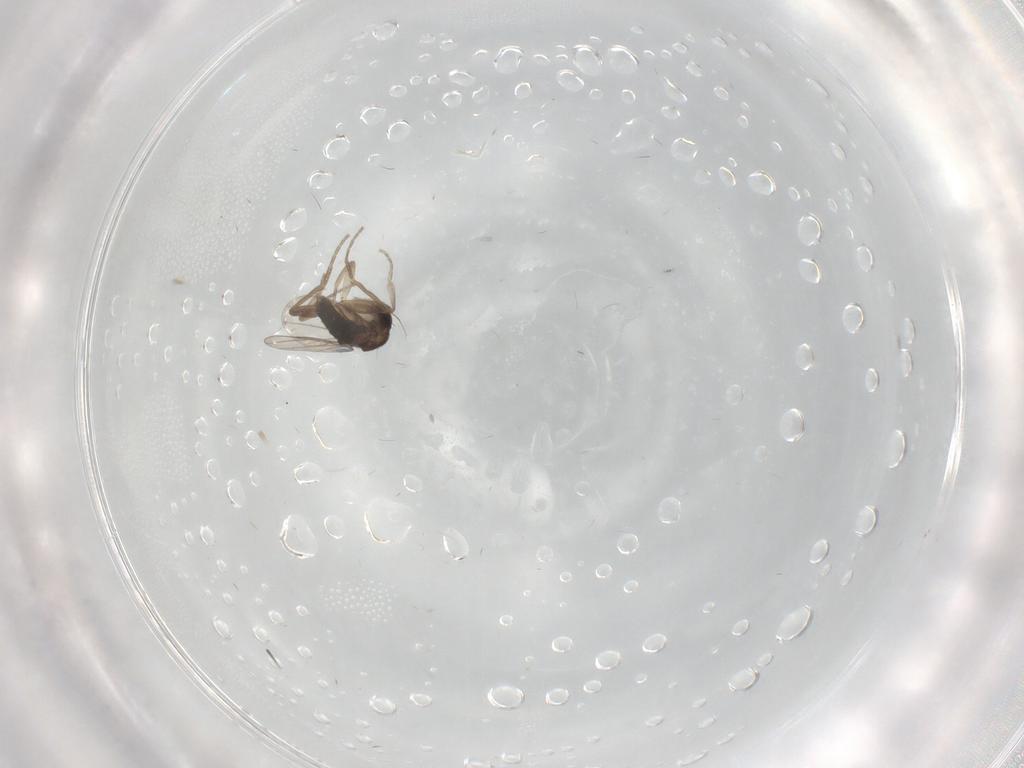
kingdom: Animalia
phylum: Arthropoda
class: Insecta
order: Diptera
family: Cecidomyiidae
